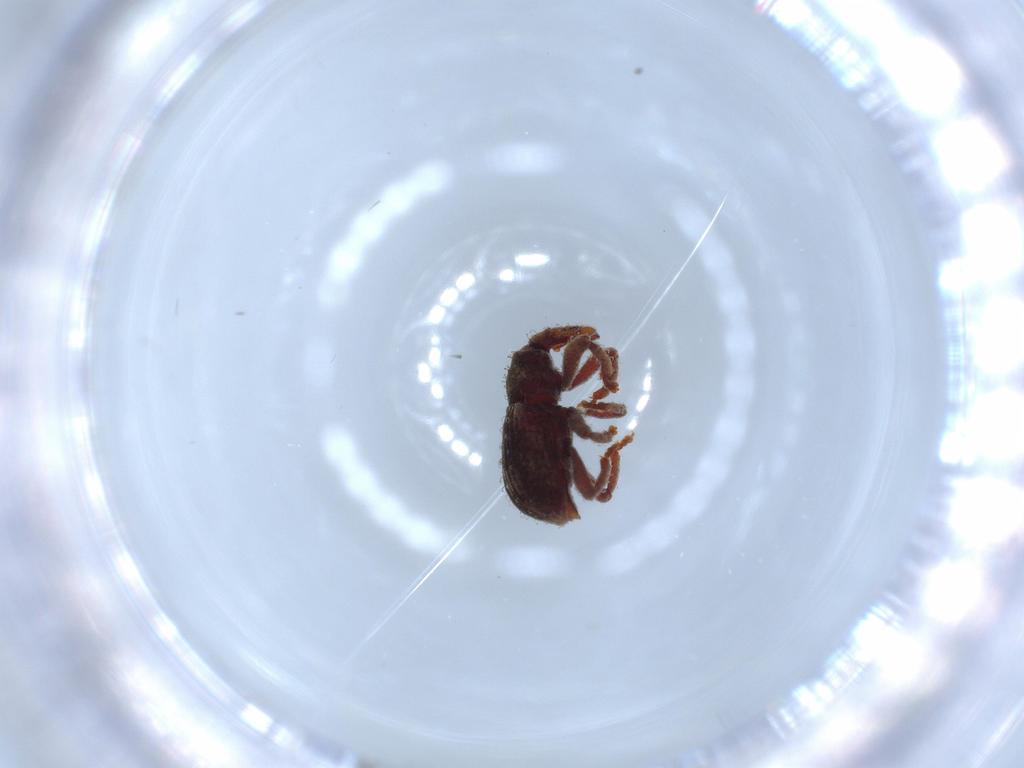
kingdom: Animalia
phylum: Arthropoda
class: Insecta
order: Coleoptera
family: Curculionidae
